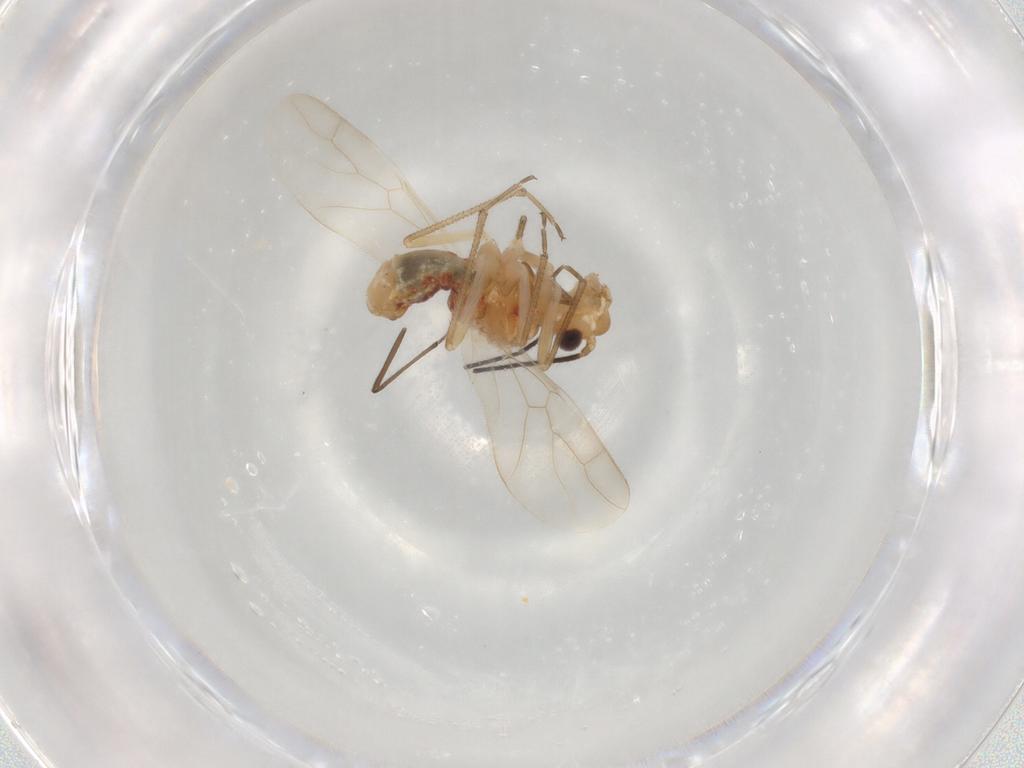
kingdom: Animalia
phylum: Arthropoda
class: Insecta
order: Psocodea
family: Caeciliusidae
